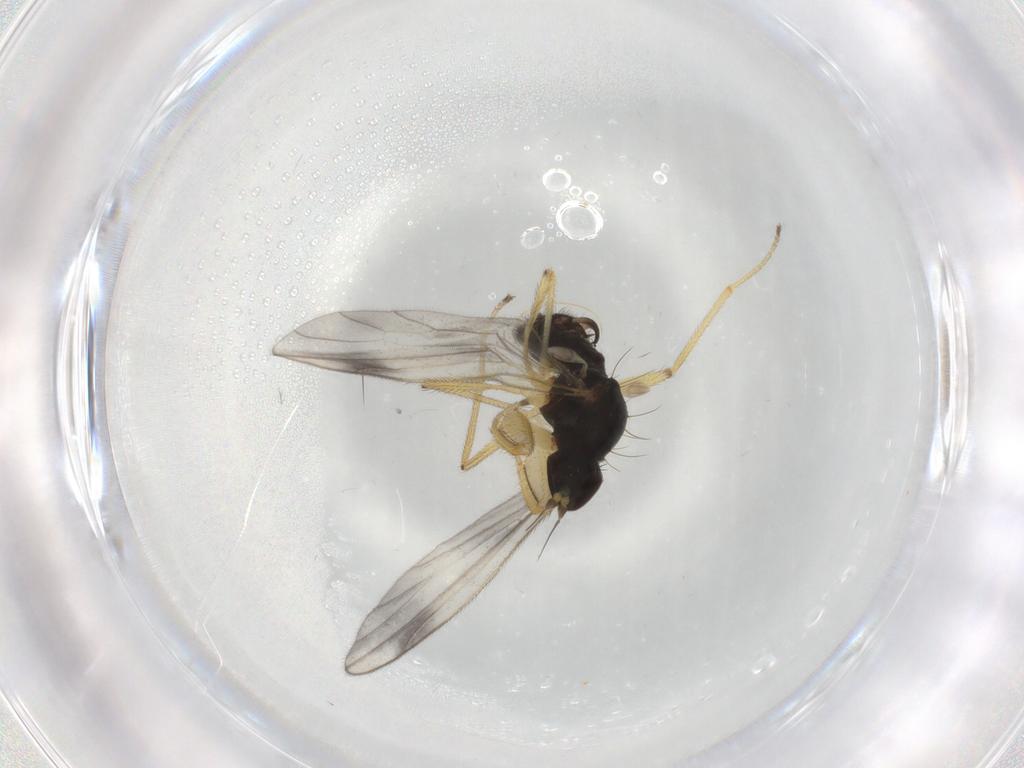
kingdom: Animalia
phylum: Arthropoda
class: Insecta
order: Diptera
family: Empididae
